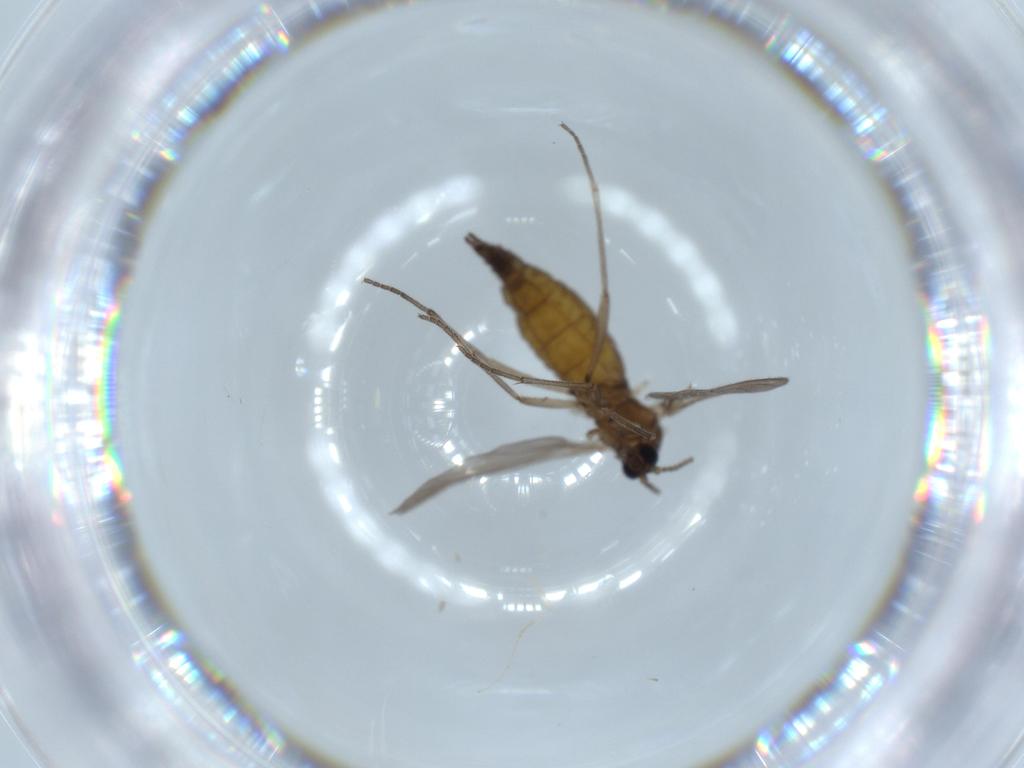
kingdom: Animalia
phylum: Arthropoda
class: Insecta
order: Diptera
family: Sciaridae
